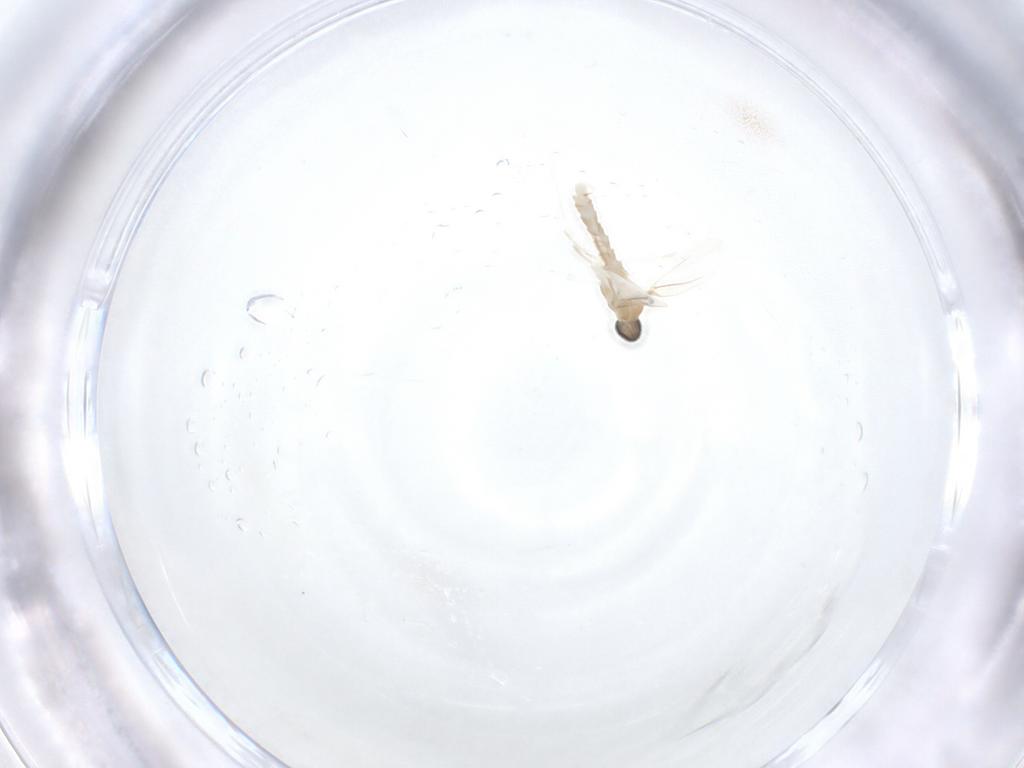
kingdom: Animalia
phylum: Arthropoda
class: Insecta
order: Diptera
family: Cecidomyiidae
